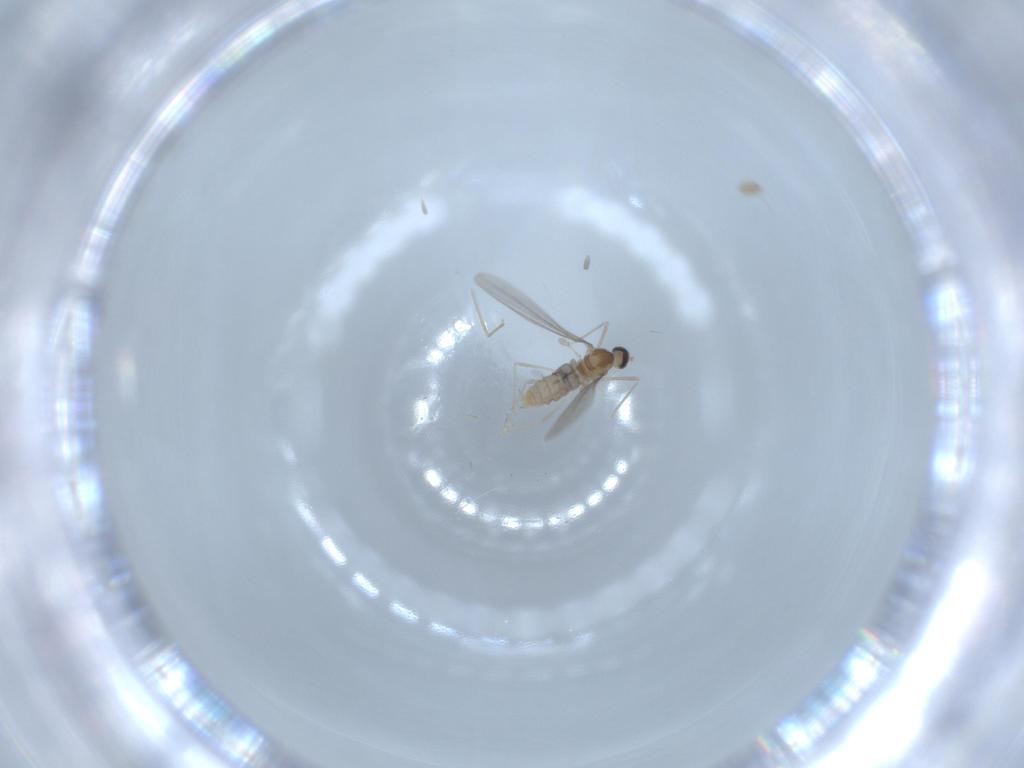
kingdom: Animalia
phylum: Arthropoda
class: Insecta
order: Diptera
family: Cecidomyiidae
